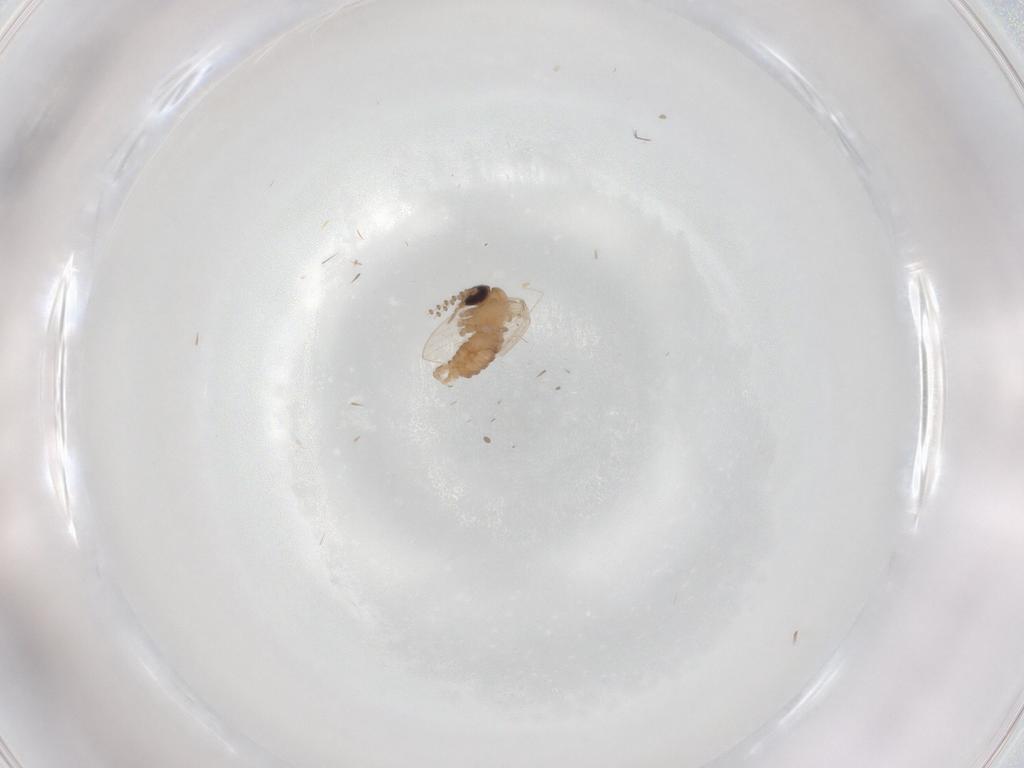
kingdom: Animalia
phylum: Arthropoda
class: Insecta
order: Diptera
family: Psychodidae
